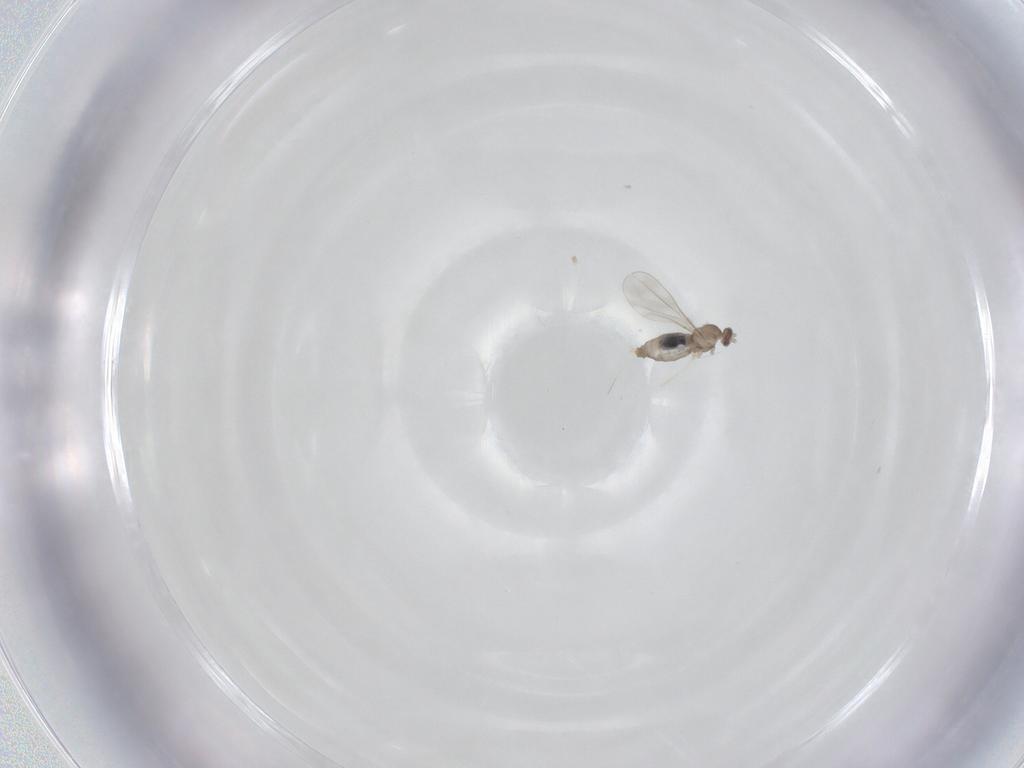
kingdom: Animalia
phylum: Arthropoda
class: Insecta
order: Diptera
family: Cecidomyiidae
